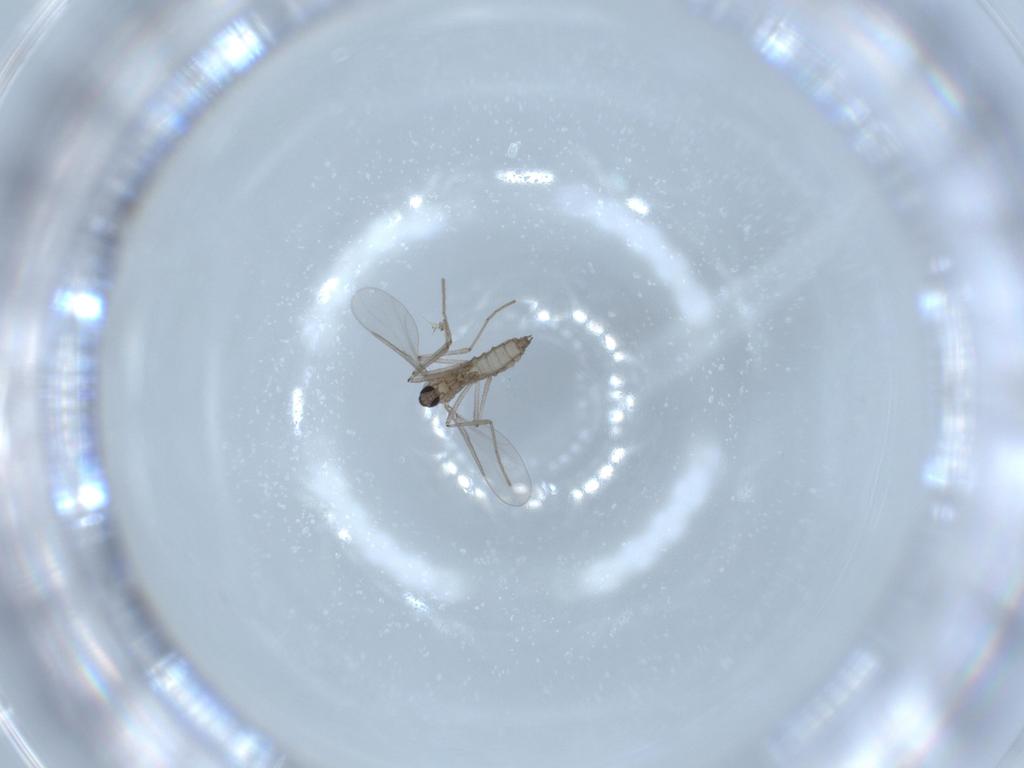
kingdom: Animalia
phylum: Arthropoda
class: Insecta
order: Diptera
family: Cecidomyiidae
